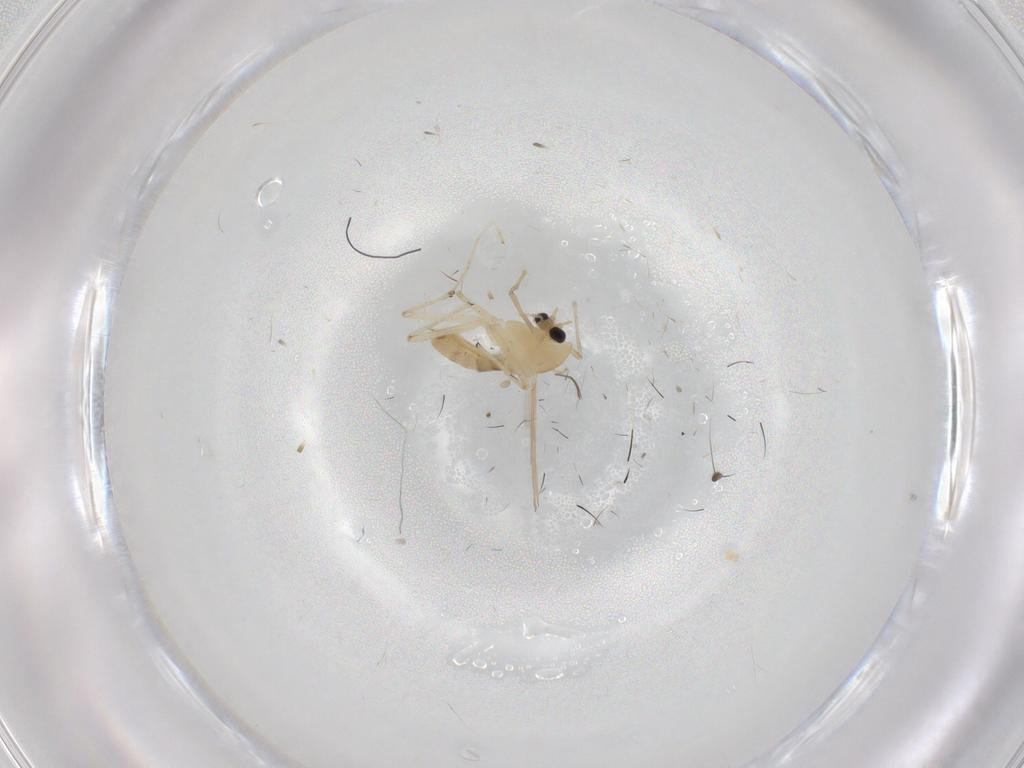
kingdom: Animalia
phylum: Arthropoda
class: Insecta
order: Diptera
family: Chironomidae
